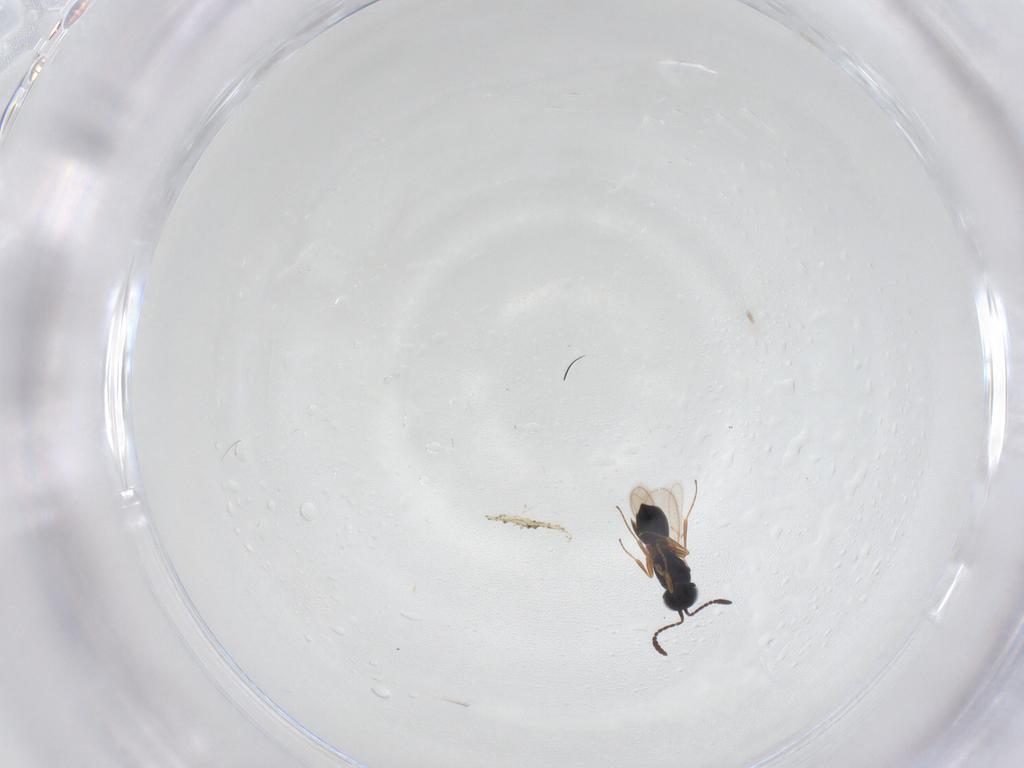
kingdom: Animalia
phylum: Arthropoda
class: Insecta
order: Hymenoptera
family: Scelionidae
